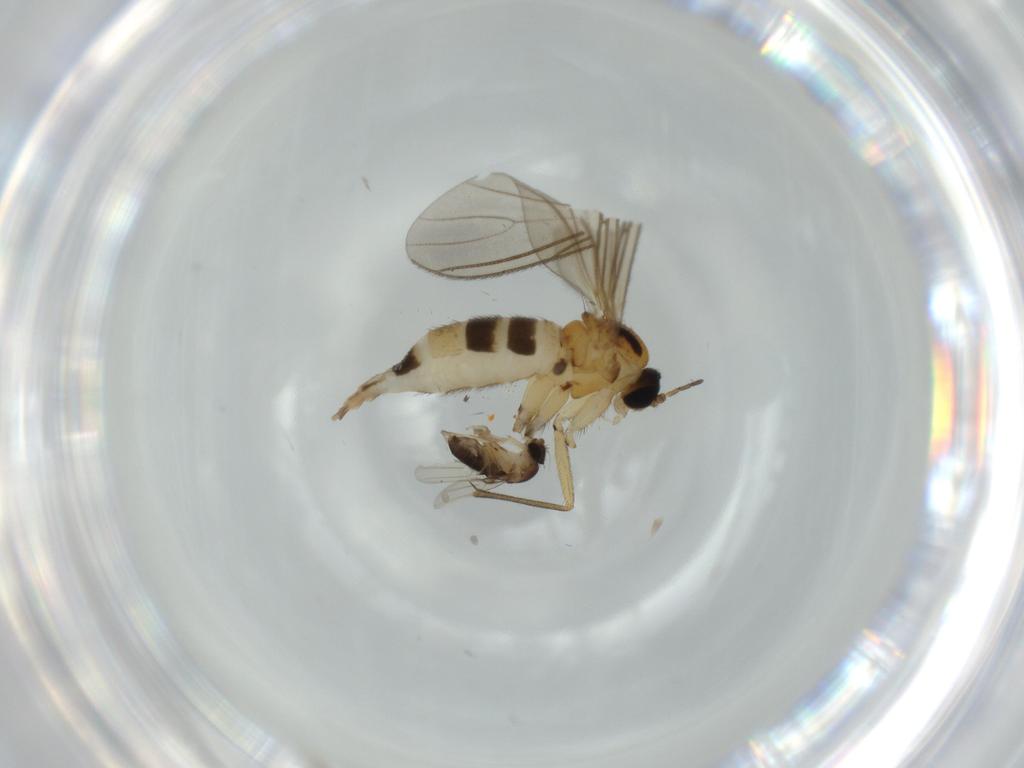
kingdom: Animalia
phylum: Arthropoda
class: Insecta
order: Diptera
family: Sciaridae
